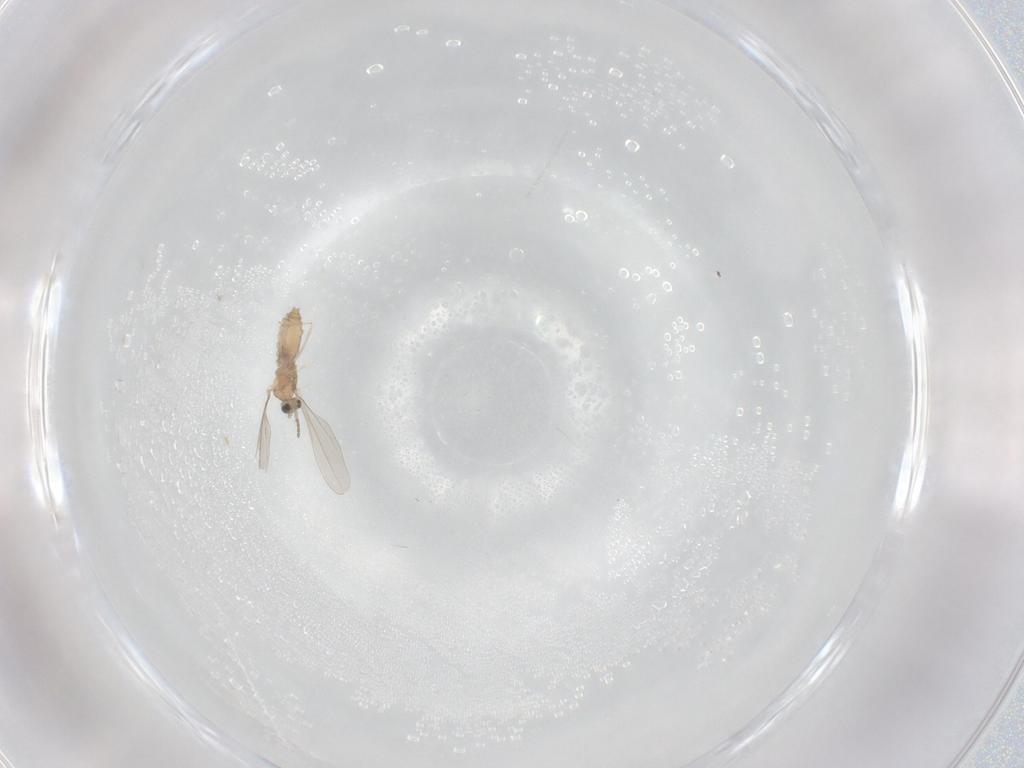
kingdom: Animalia
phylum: Arthropoda
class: Insecta
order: Diptera
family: Cecidomyiidae
